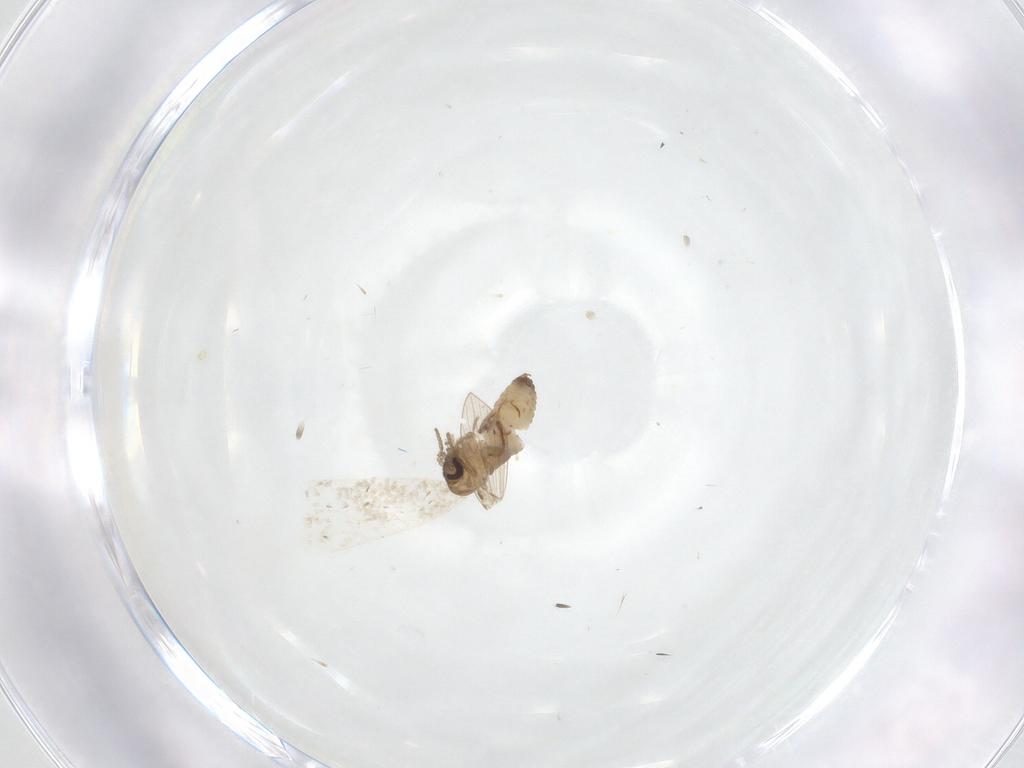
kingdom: Animalia
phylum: Arthropoda
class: Insecta
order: Diptera
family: Psychodidae
